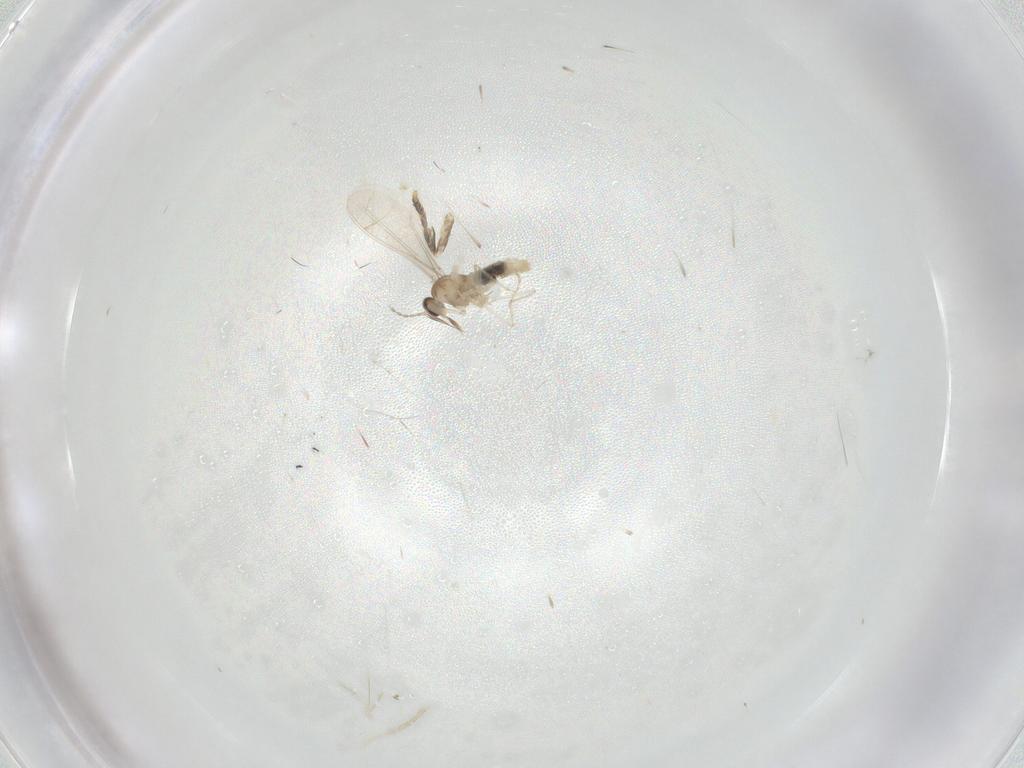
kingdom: Animalia
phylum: Arthropoda
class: Insecta
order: Diptera
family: Cecidomyiidae
